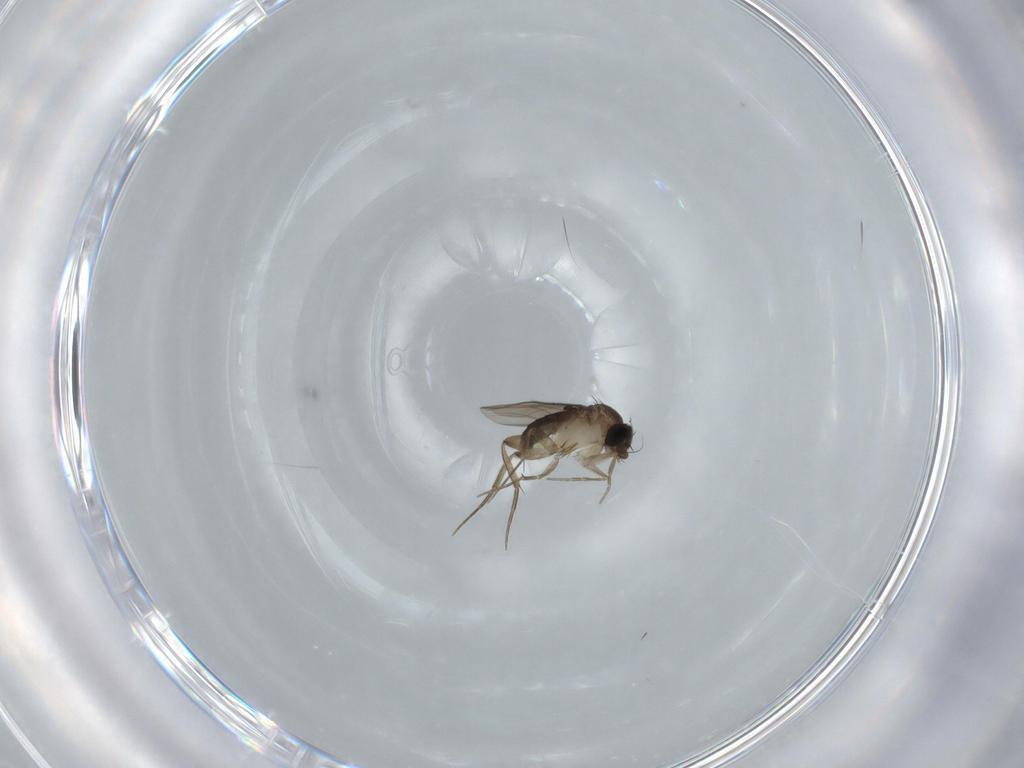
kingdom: Animalia
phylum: Arthropoda
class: Insecta
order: Diptera
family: Cecidomyiidae
